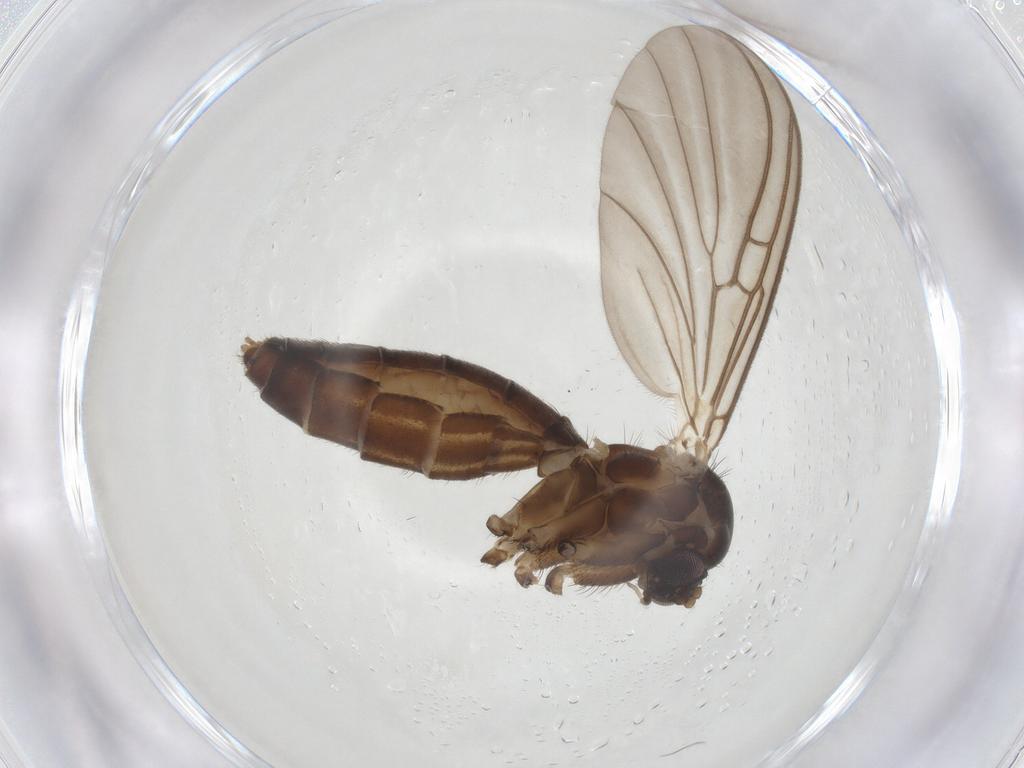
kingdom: Animalia
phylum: Arthropoda
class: Insecta
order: Diptera
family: Mycetophilidae
